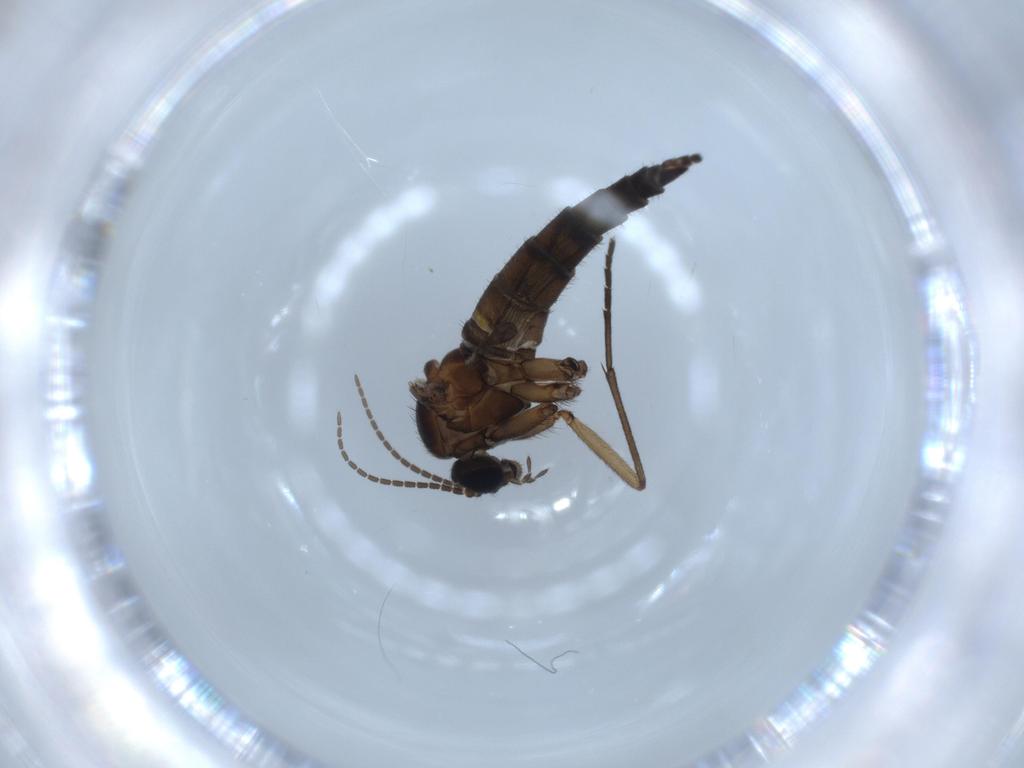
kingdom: Animalia
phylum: Arthropoda
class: Insecta
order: Diptera
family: Sciaridae
